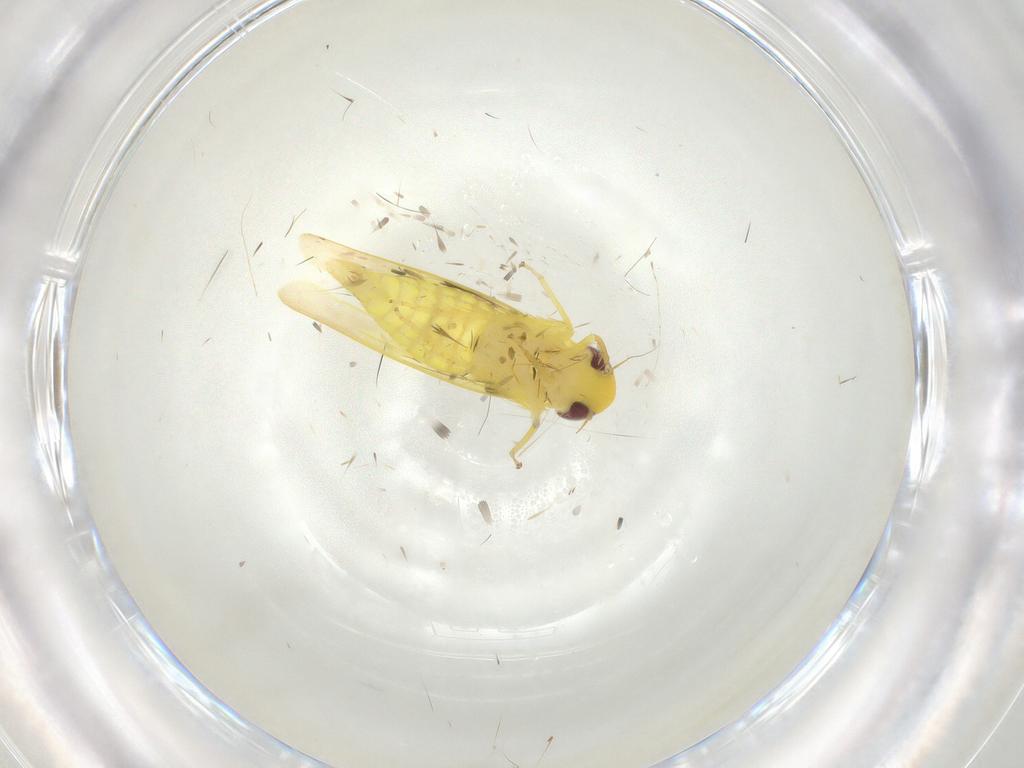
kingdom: Animalia
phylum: Arthropoda
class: Insecta
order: Hemiptera
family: Cicadellidae
